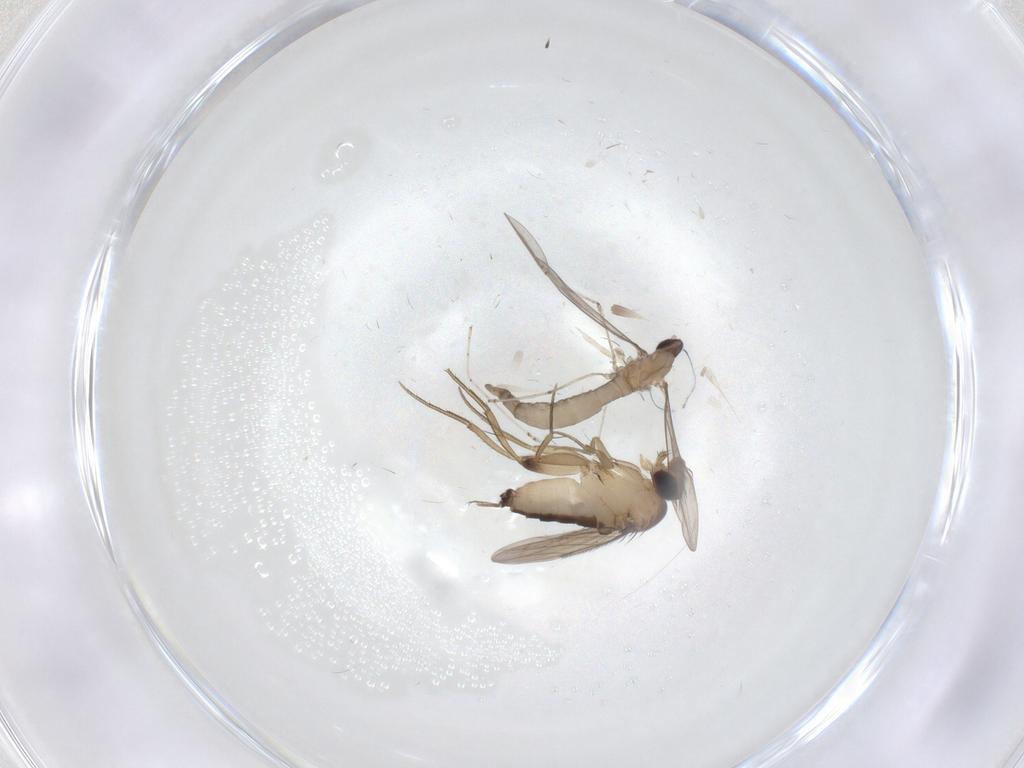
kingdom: Animalia
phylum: Arthropoda
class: Insecta
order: Diptera
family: Cecidomyiidae
